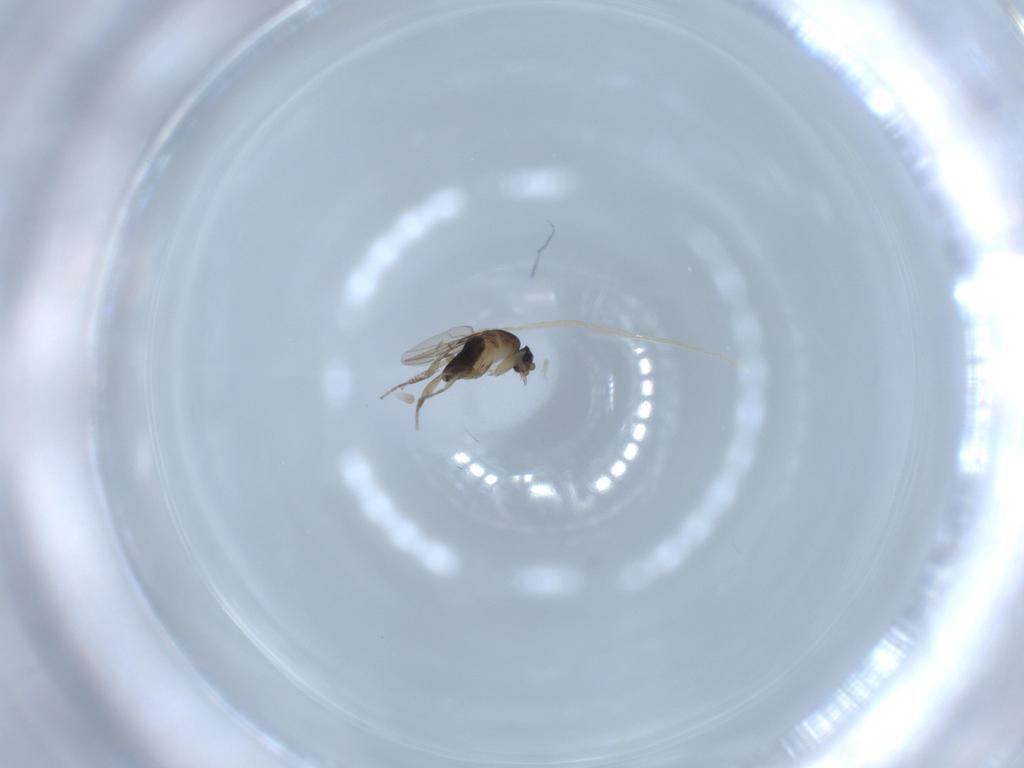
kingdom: Animalia
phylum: Arthropoda
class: Insecta
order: Diptera
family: Phoridae
